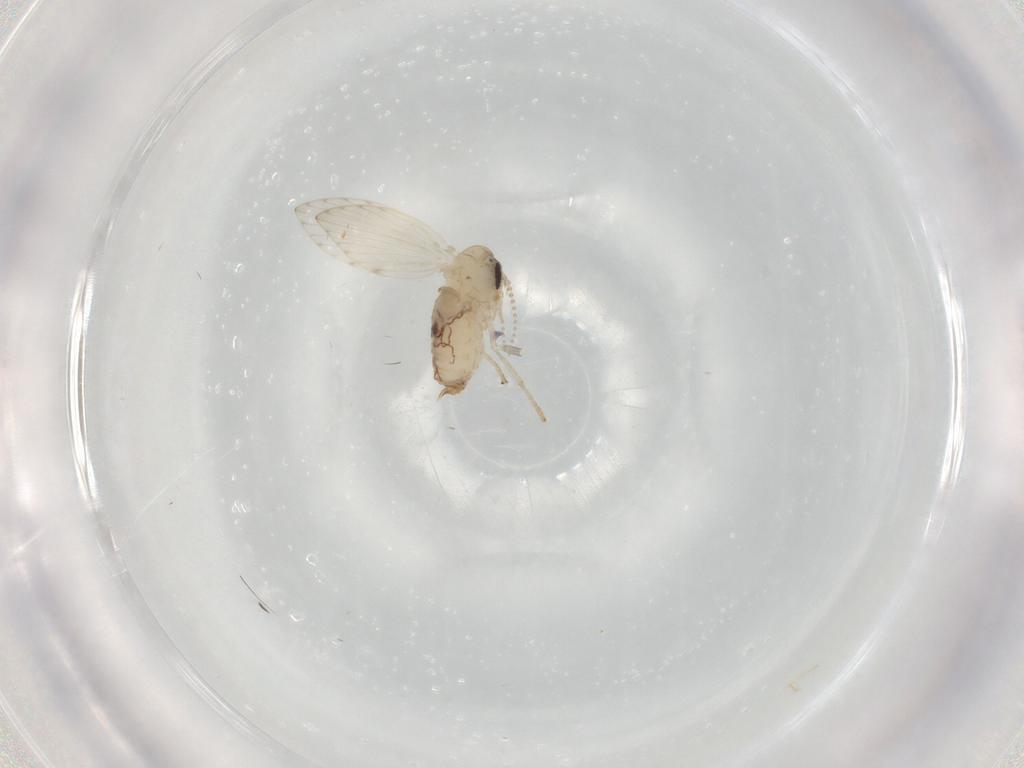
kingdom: Animalia
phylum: Arthropoda
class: Insecta
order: Diptera
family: Psychodidae
